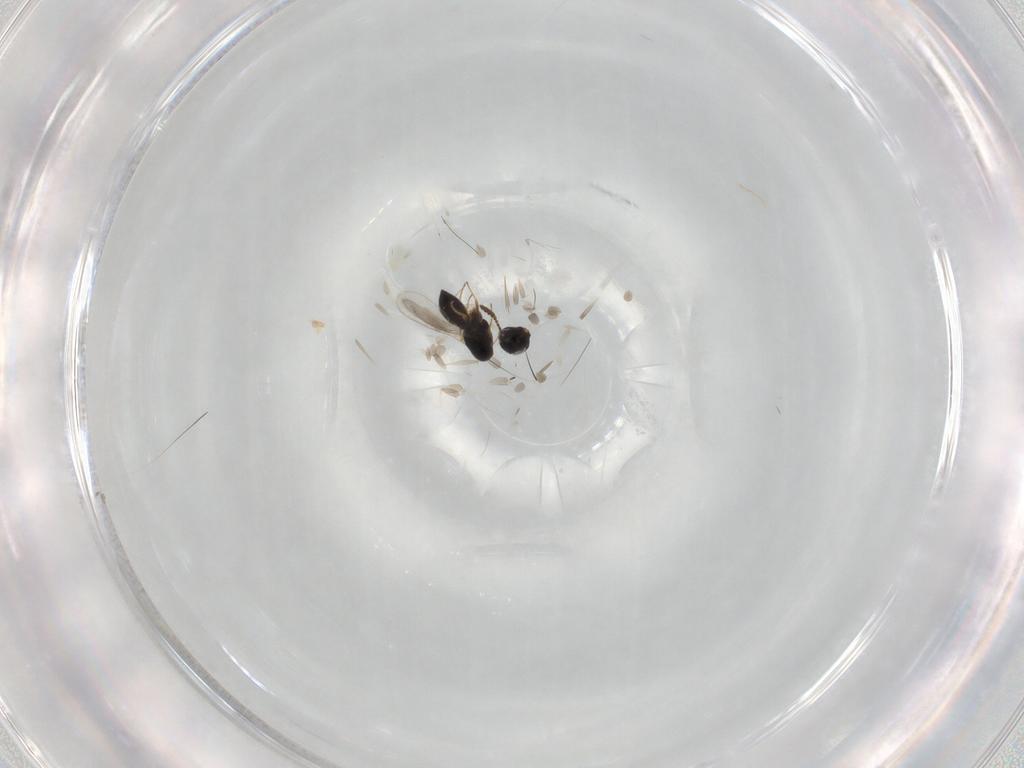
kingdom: Animalia
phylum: Arthropoda
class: Insecta
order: Hymenoptera
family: Scelionidae
